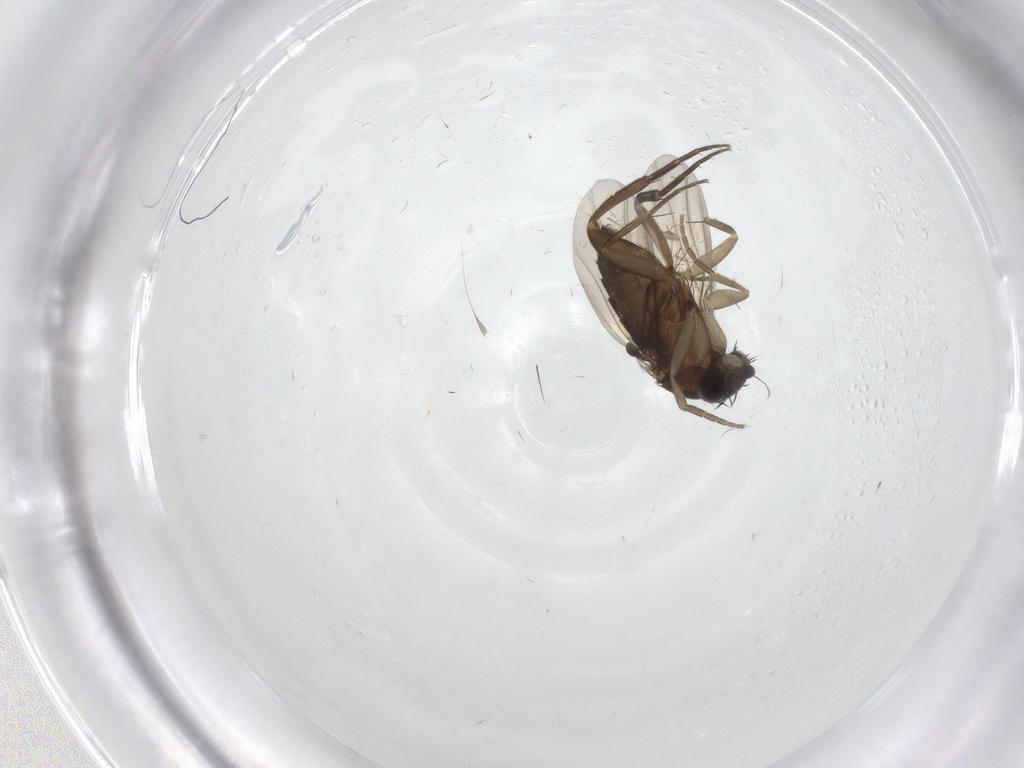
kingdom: Animalia
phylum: Arthropoda
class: Insecta
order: Diptera
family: Phoridae
